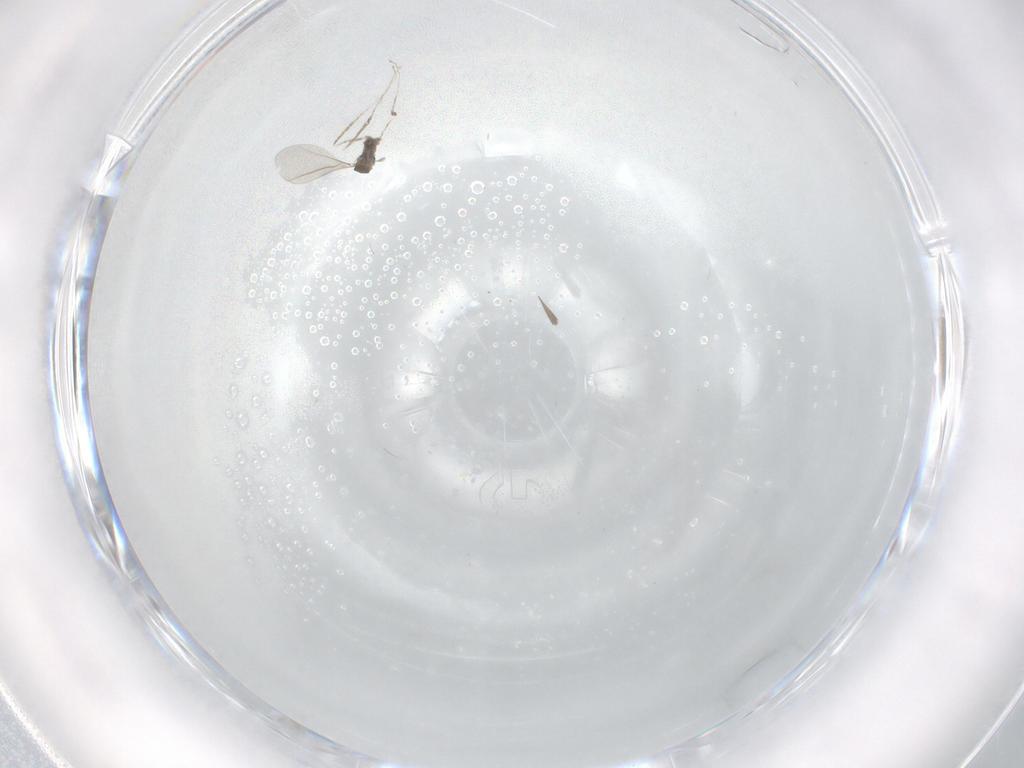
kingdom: Animalia
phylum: Arthropoda
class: Insecta
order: Diptera
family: Cecidomyiidae
